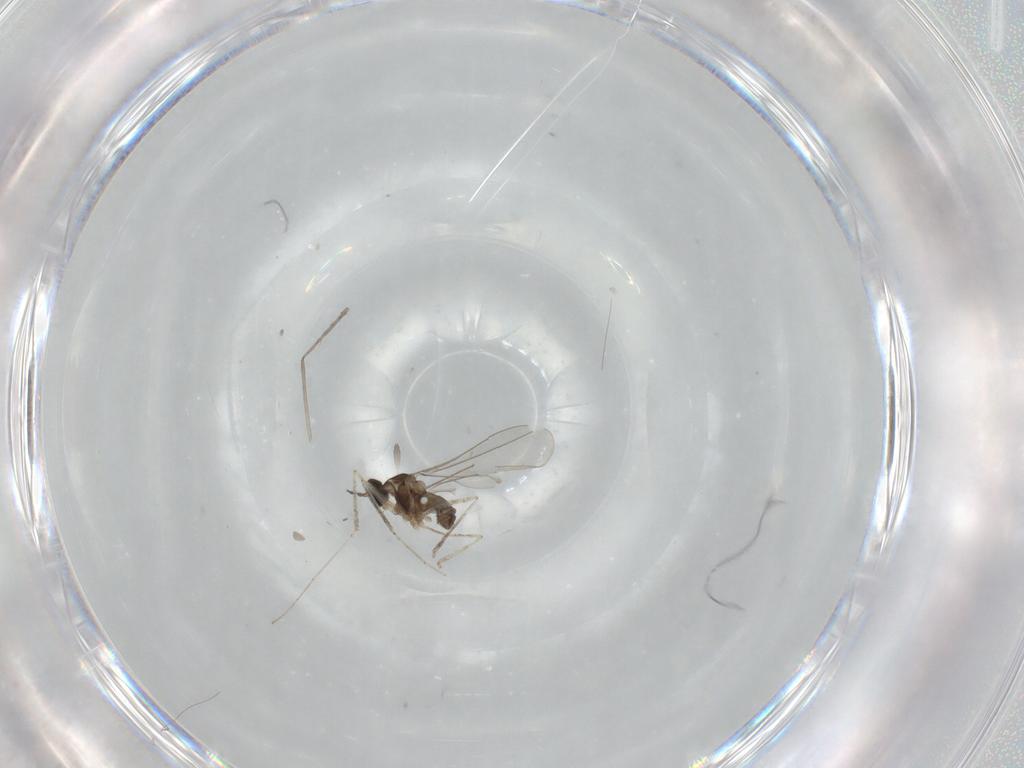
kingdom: Animalia
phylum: Arthropoda
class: Insecta
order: Diptera
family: Cecidomyiidae
